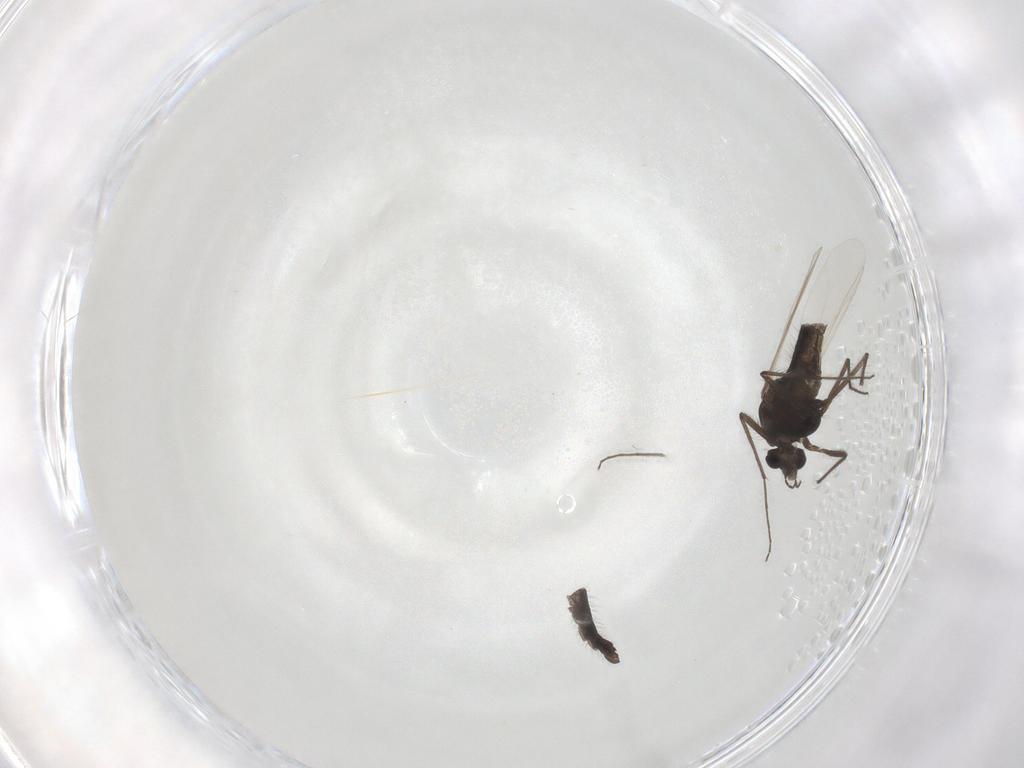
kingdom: Animalia
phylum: Arthropoda
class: Insecta
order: Diptera
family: Chironomidae
